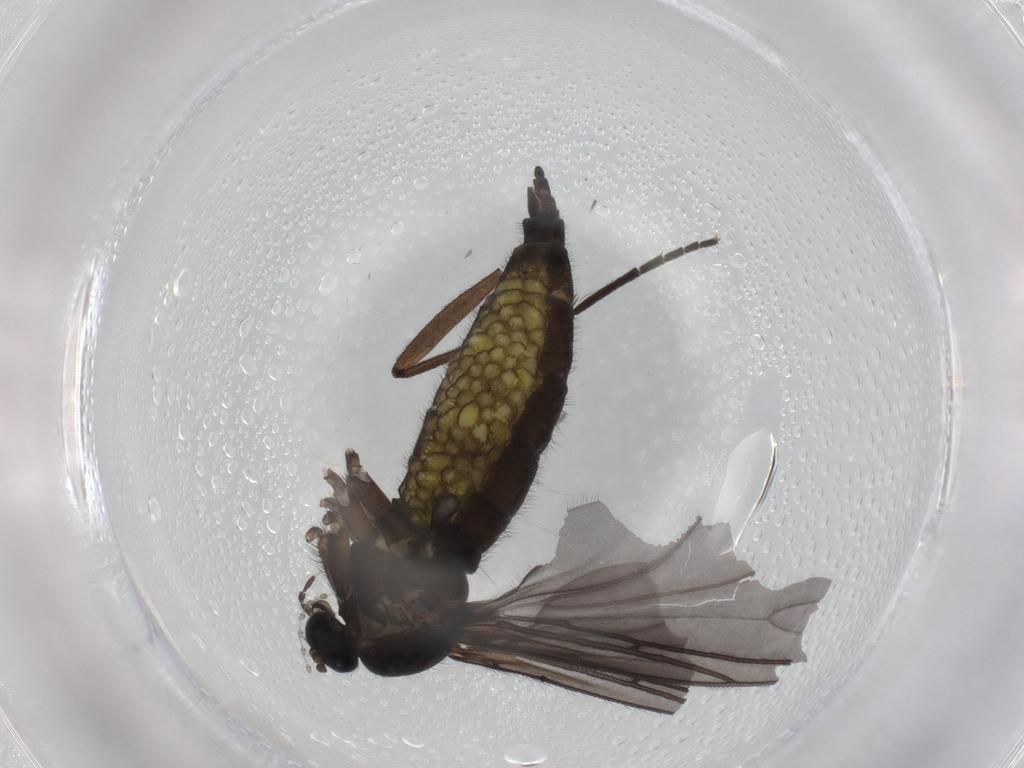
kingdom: Animalia
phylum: Arthropoda
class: Insecta
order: Diptera
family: Sciaridae
